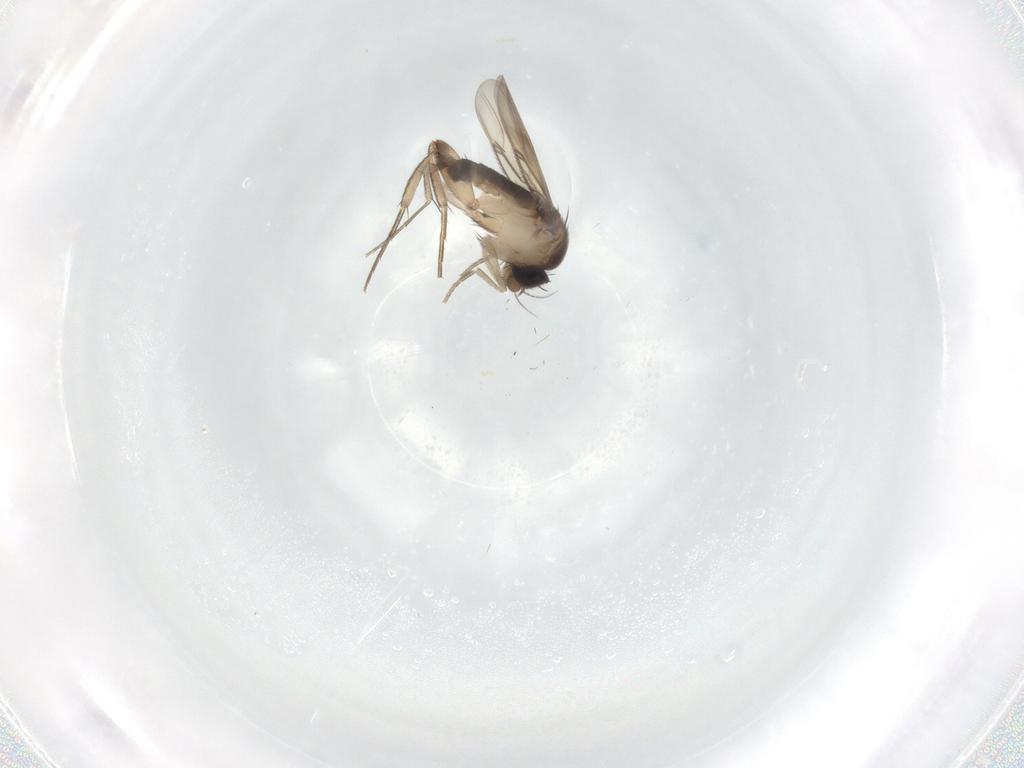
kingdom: Animalia
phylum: Arthropoda
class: Insecta
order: Diptera
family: Phoridae
